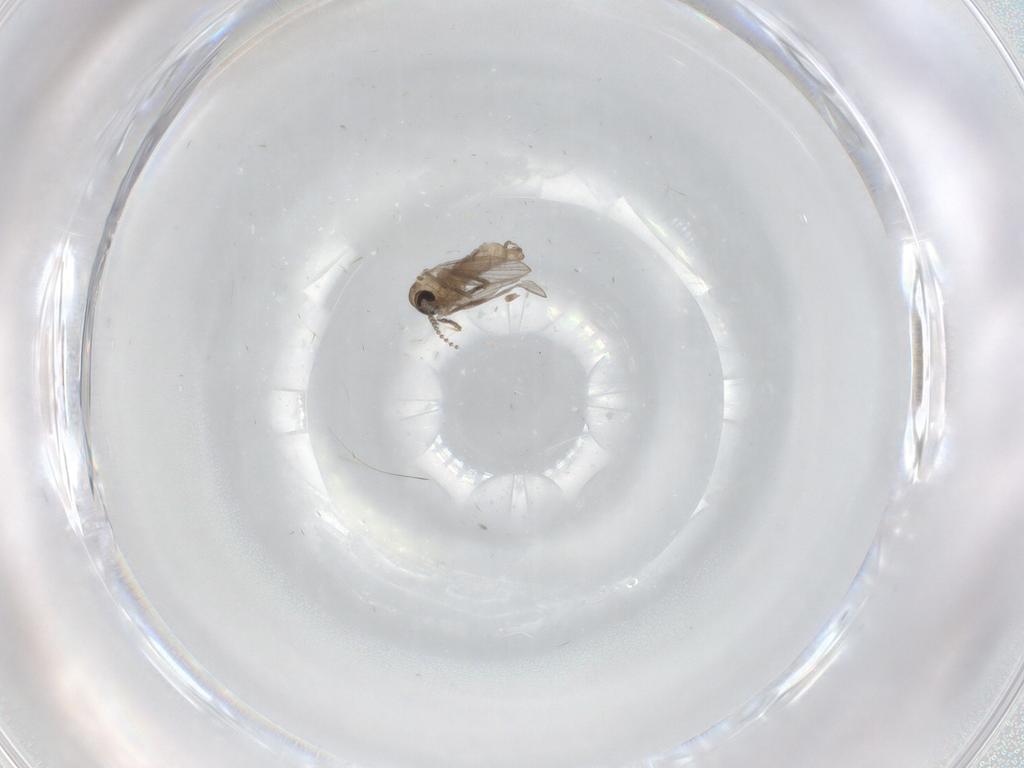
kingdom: Animalia
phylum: Arthropoda
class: Insecta
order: Diptera
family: Psychodidae
